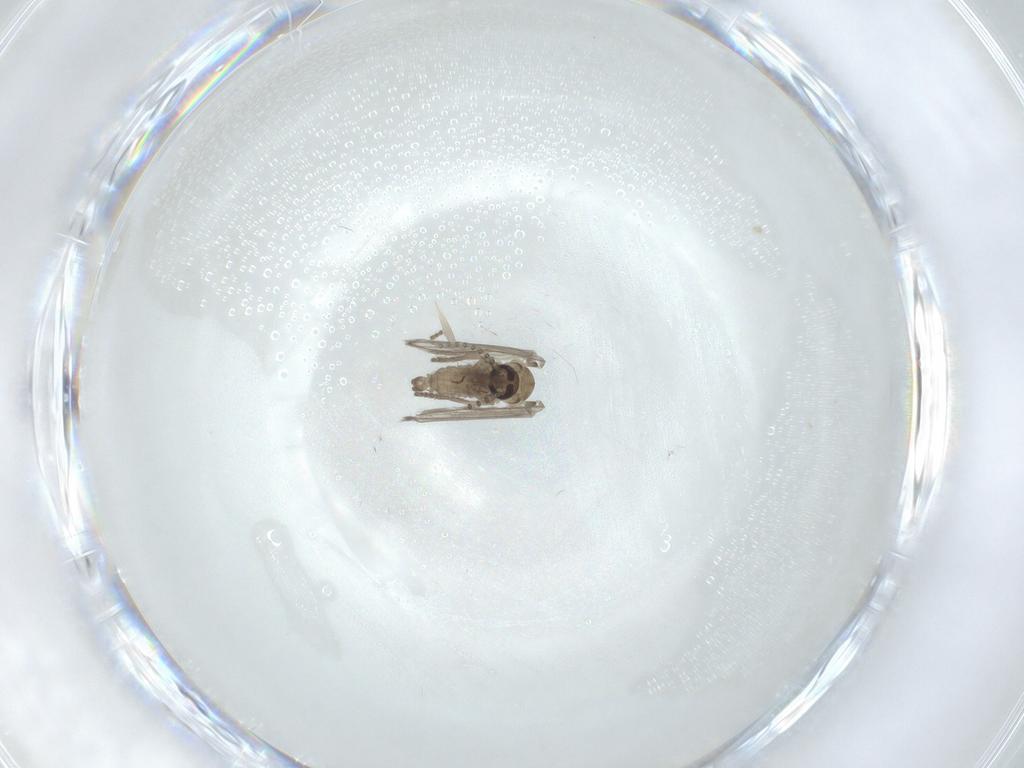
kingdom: Animalia
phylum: Arthropoda
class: Insecta
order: Diptera
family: Psychodidae
